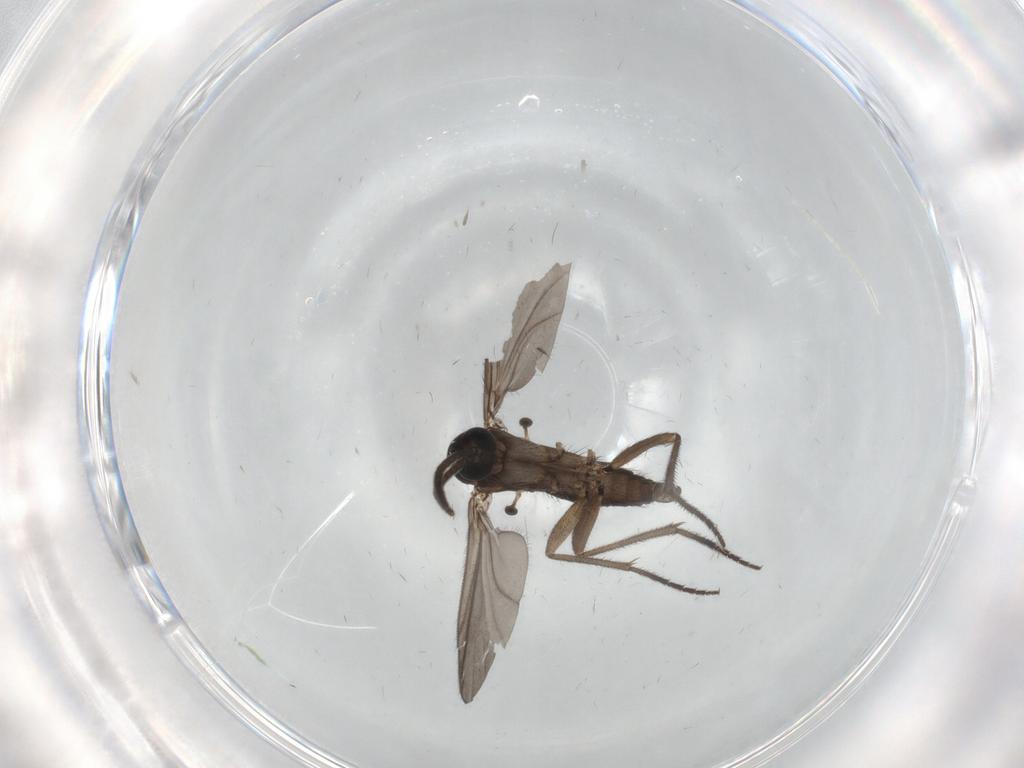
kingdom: Animalia
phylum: Arthropoda
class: Insecta
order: Diptera
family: Sciaridae
